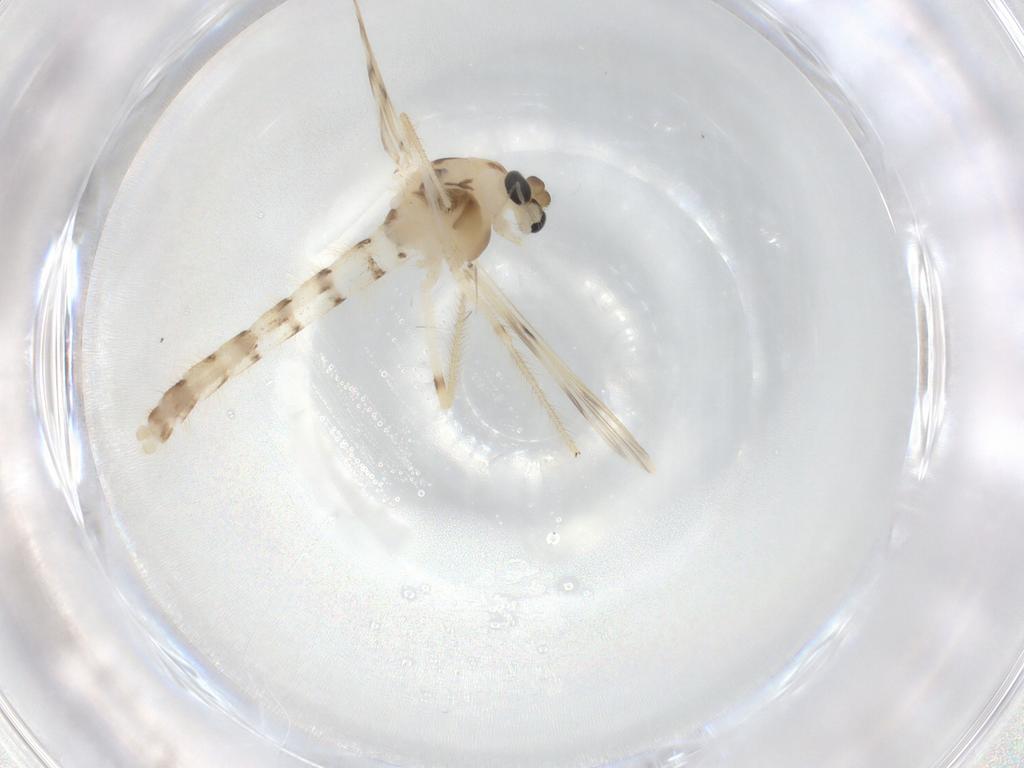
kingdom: Animalia
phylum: Arthropoda
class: Insecta
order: Diptera
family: Chironomidae
